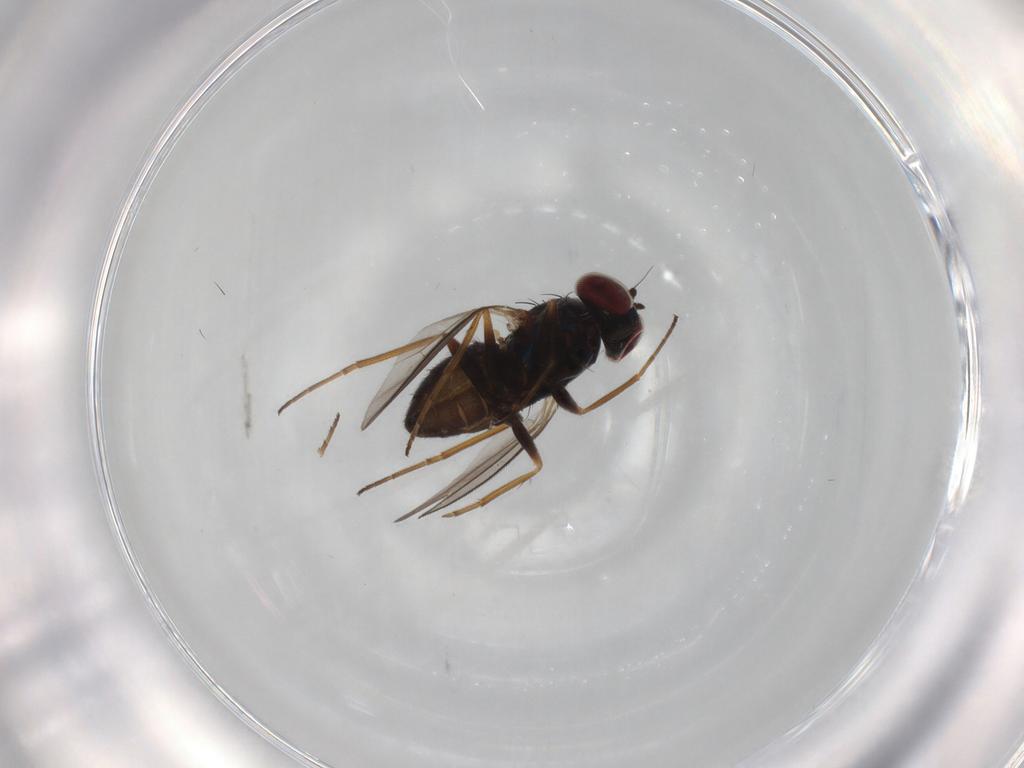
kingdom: Animalia
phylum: Arthropoda
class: Insecta
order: Diptera
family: Dolichopodidae
